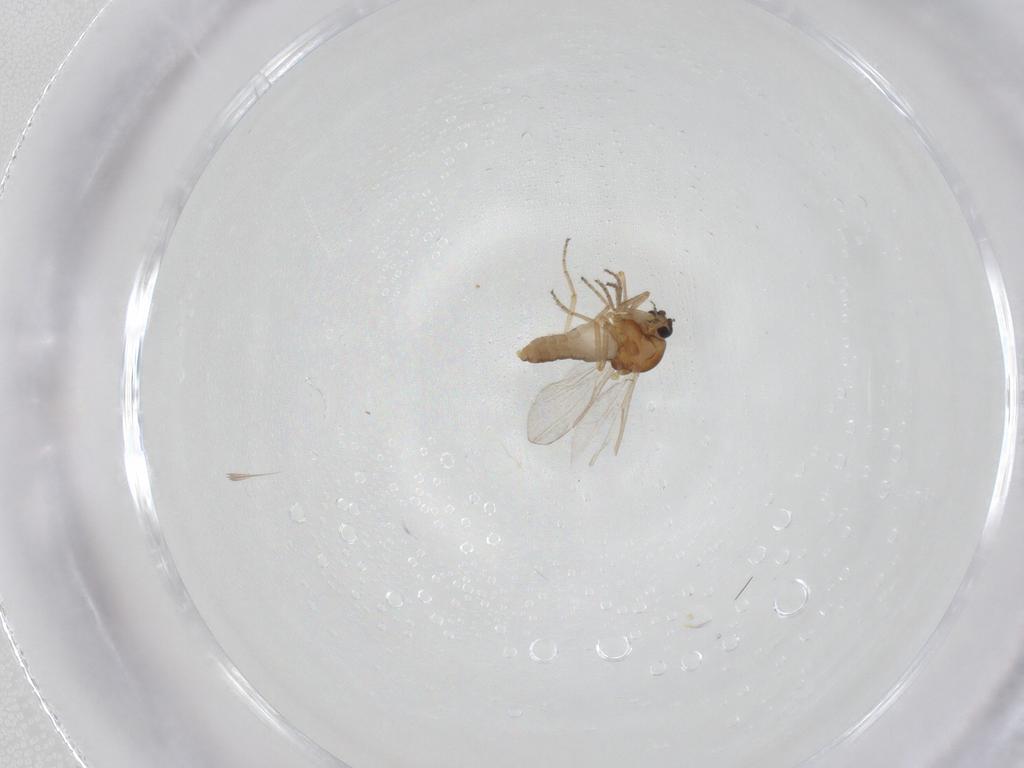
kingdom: Animalia
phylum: Arthropoda
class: Insecta
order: Diptera
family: Ceratopogonidae
